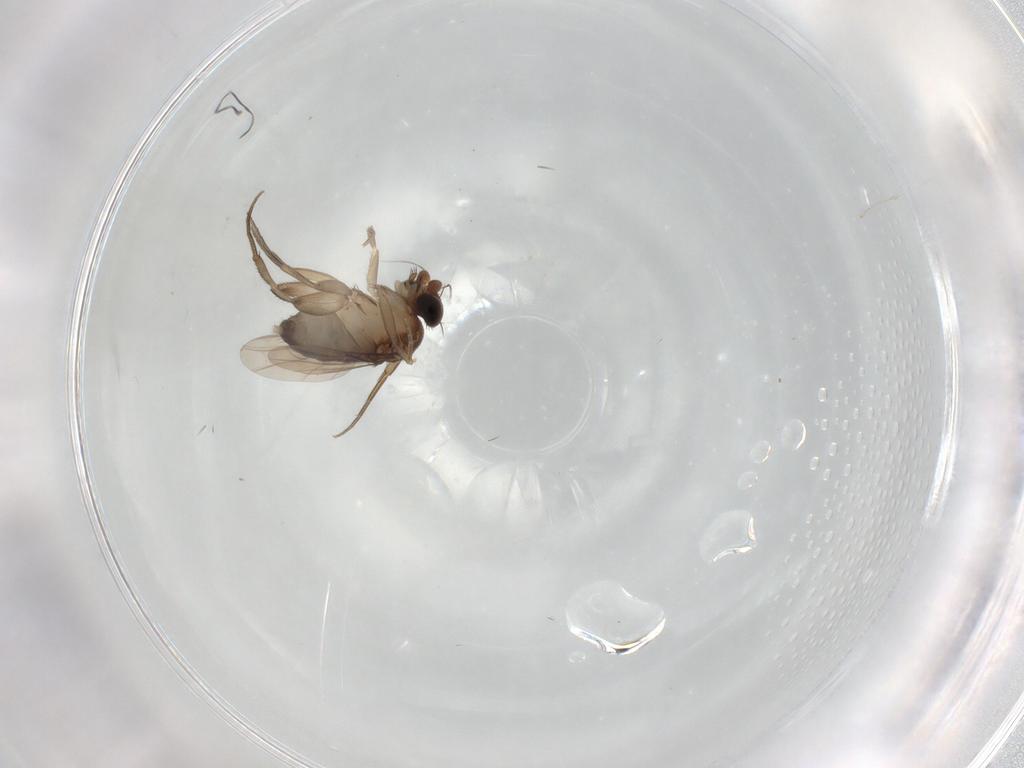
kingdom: Animalia
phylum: Arthropoda
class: Insecta
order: Diptera
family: Phoridae
